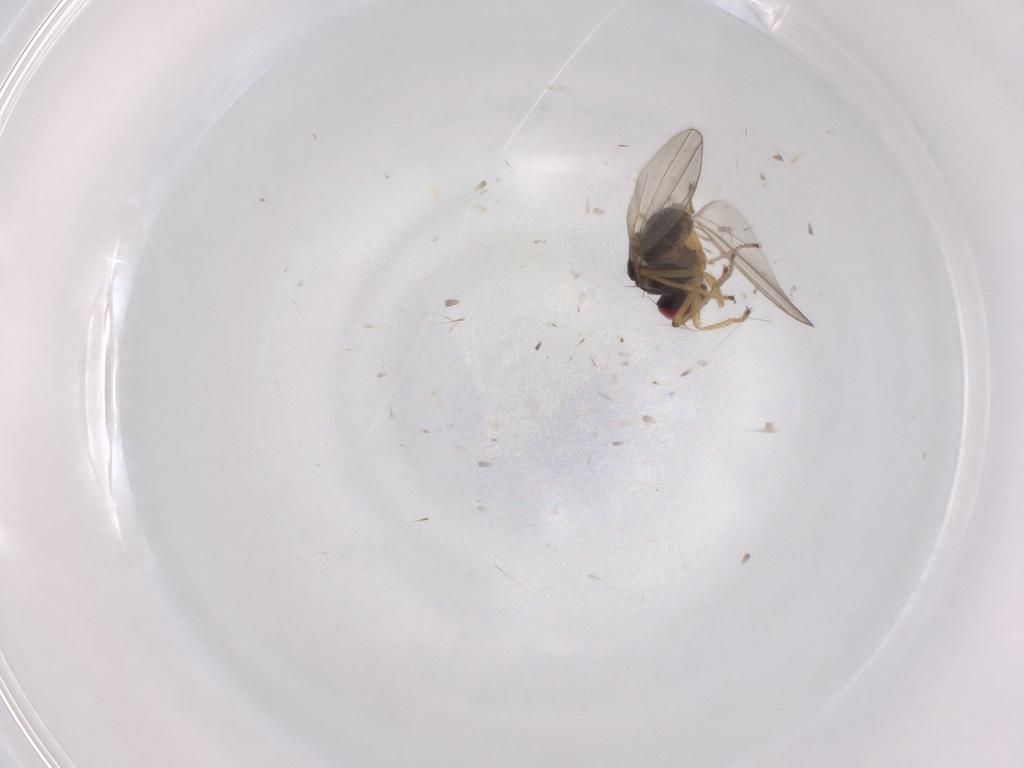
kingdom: Animalia
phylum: Arthropoda
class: Insecta
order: Diptera
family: Ephydridae
